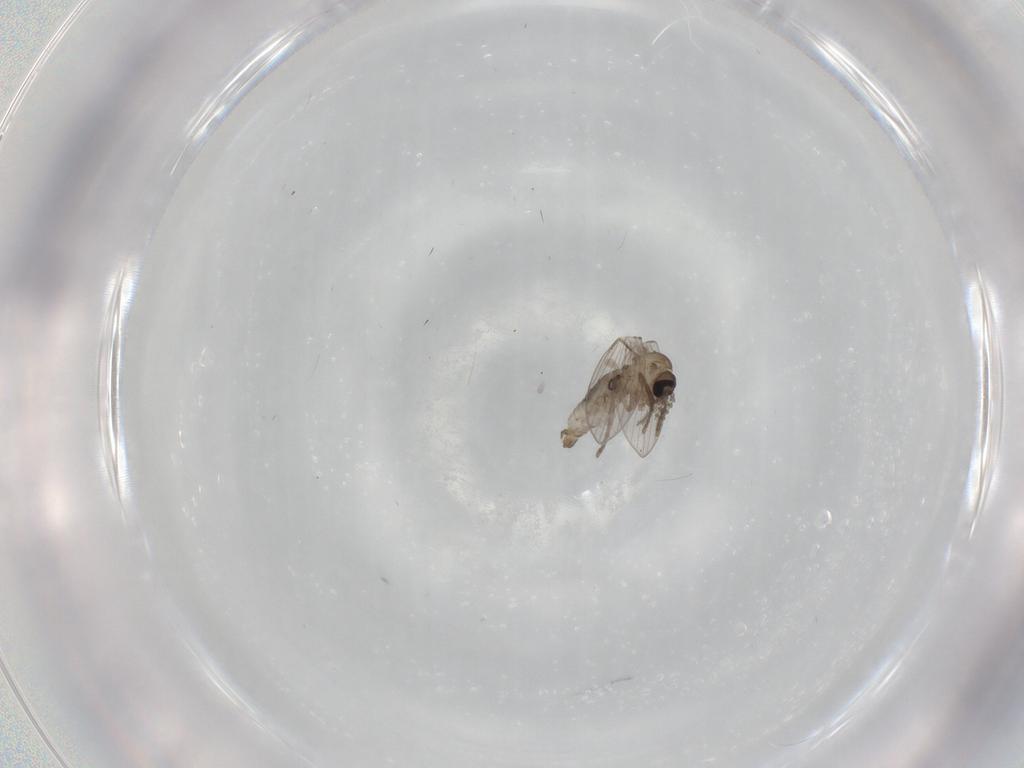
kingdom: Animalia
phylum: Arthropoda
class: Insecta
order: Diptera
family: Psychodidae
